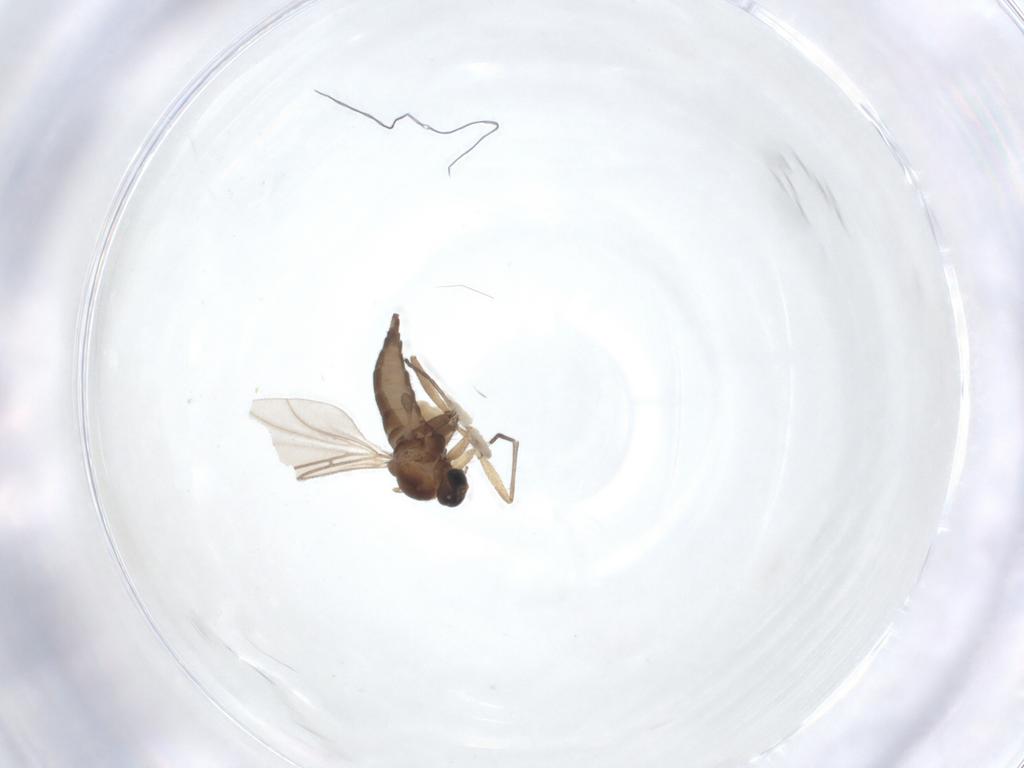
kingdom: Animalia
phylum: Arthropoda
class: Insecta
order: Diptera
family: Sciaridae
